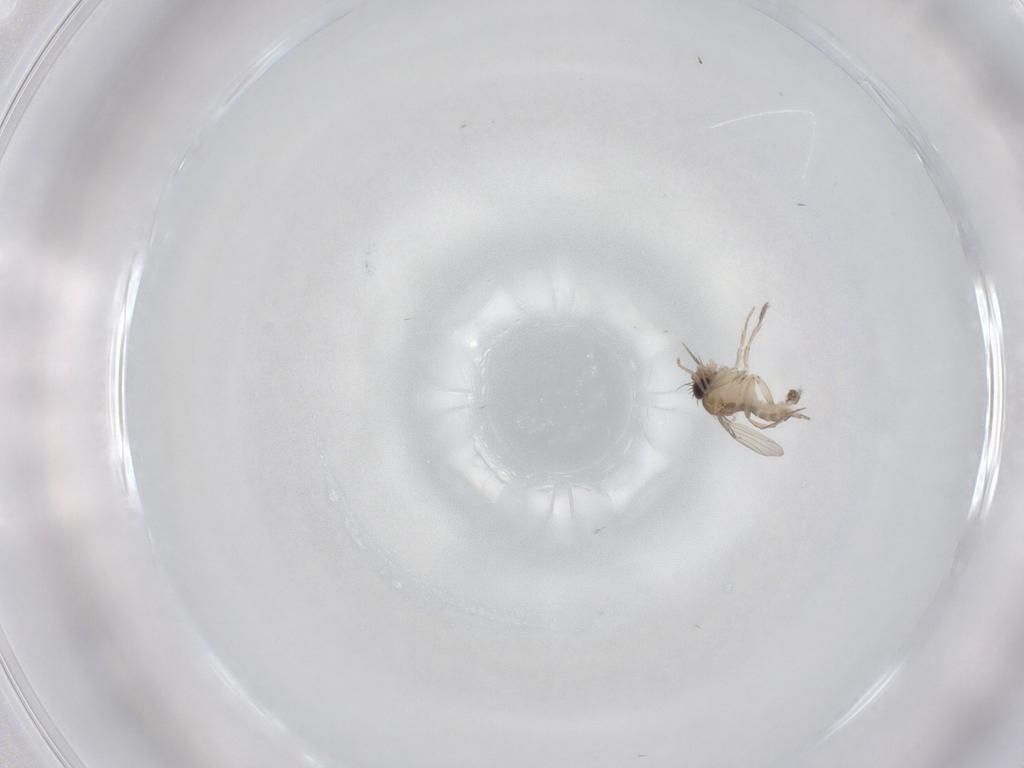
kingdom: Animalia
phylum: Arthropoda
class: Insecta
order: Diptera
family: Phoridae
